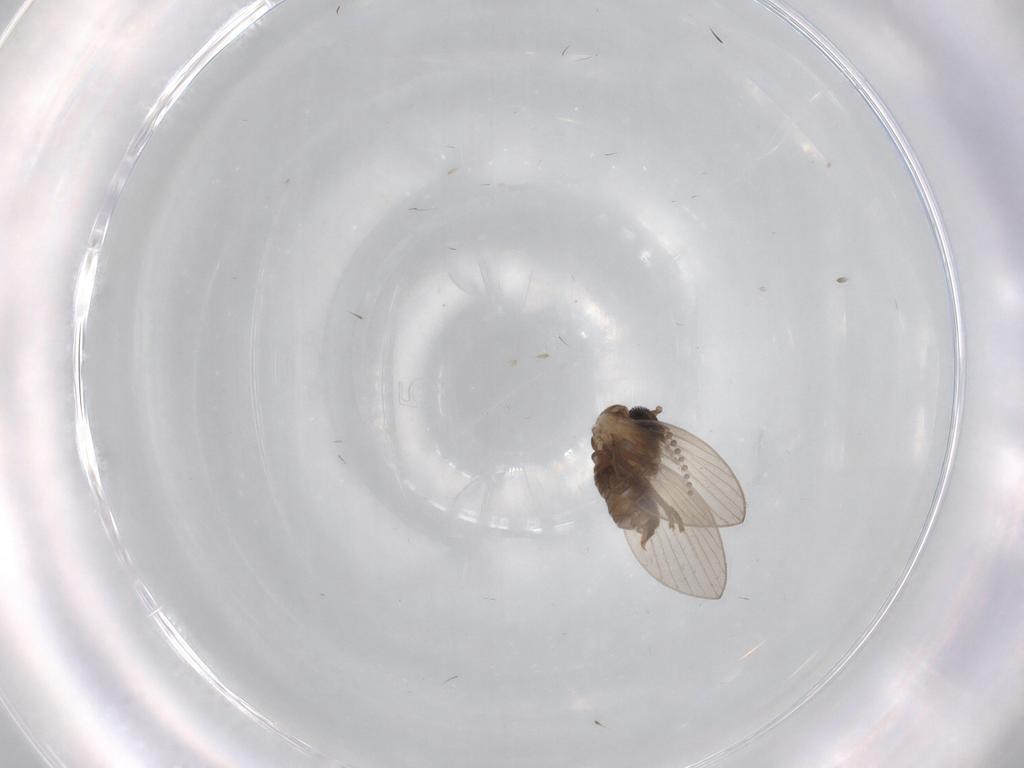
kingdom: Animalia
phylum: Arthropoda
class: Insecta
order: Diptera
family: Psychodidae
